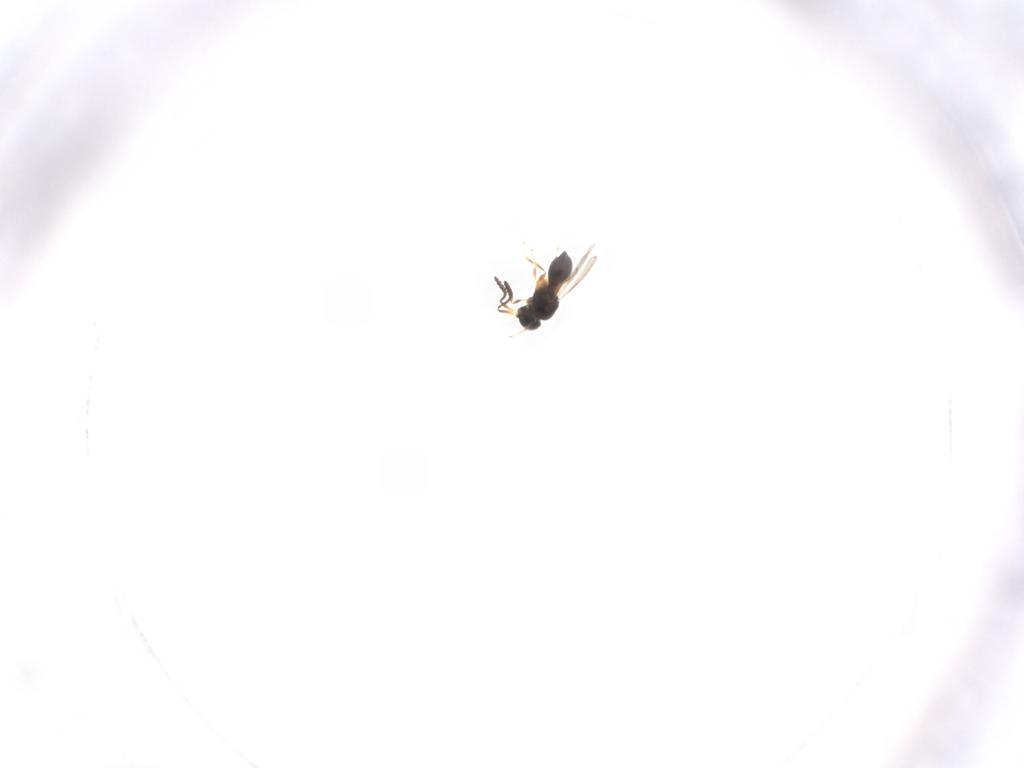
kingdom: Animalia
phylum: Arthropoda
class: Insecta
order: Hymenoptera
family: Scelionidae
